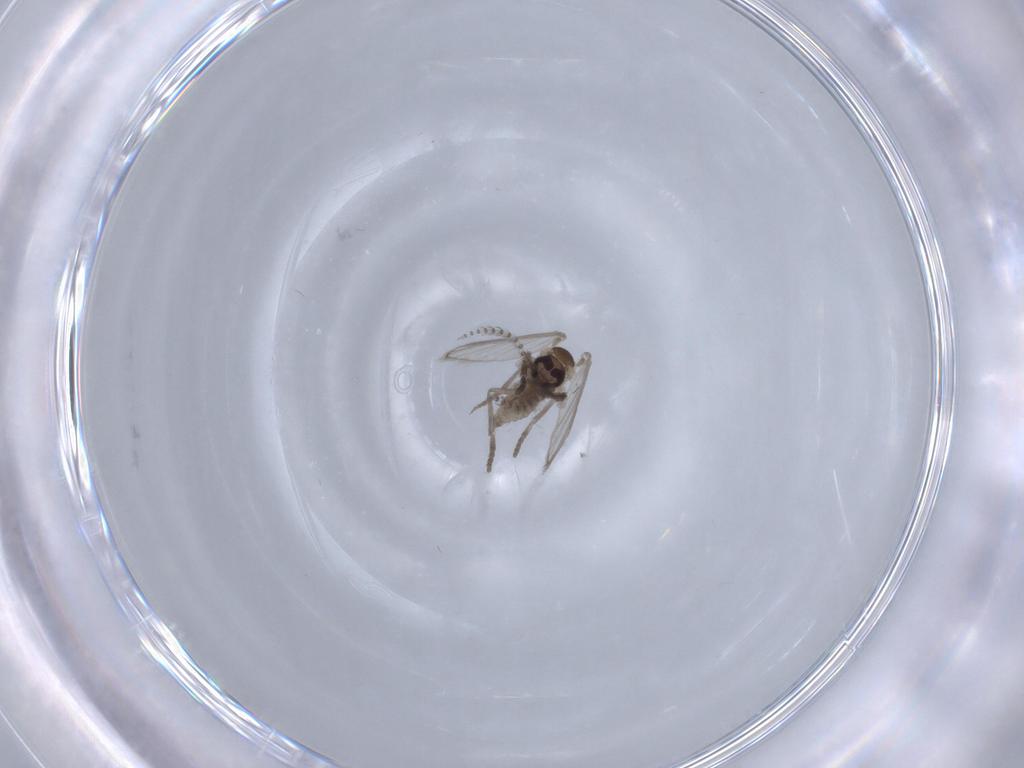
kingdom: Animalia
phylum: Arthropoda
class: Insecta
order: Diptera
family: Psychodidae
